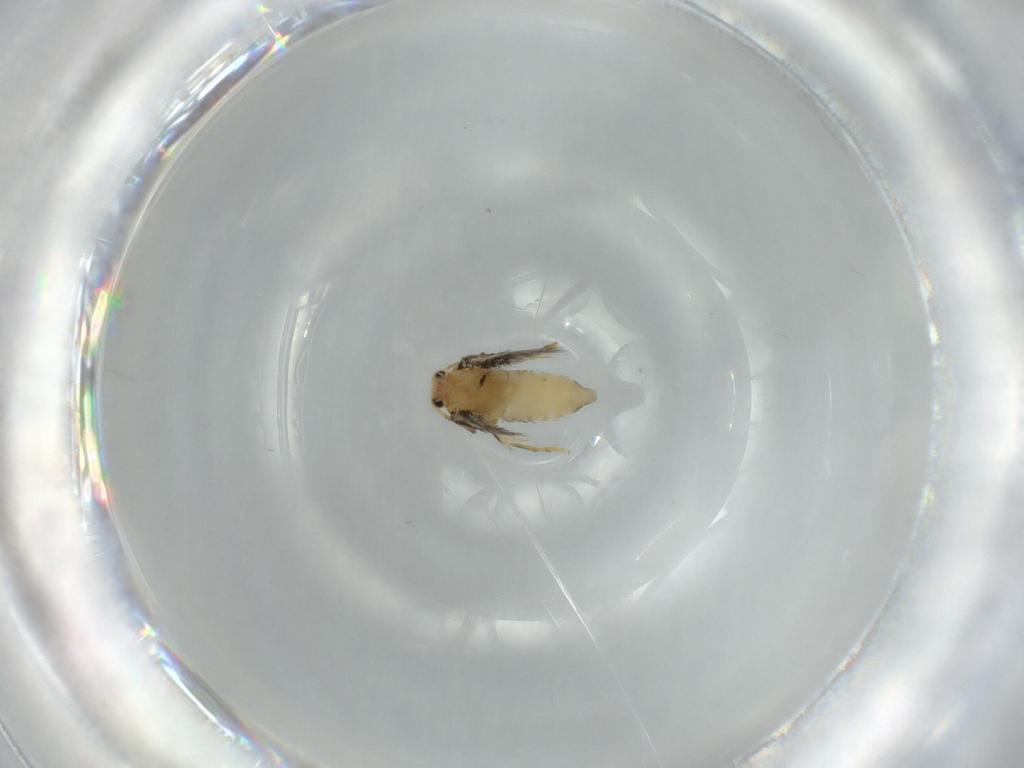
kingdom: Animalia
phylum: Arthropoda
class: Insecta
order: Lepidoptera
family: Nepticulidae
